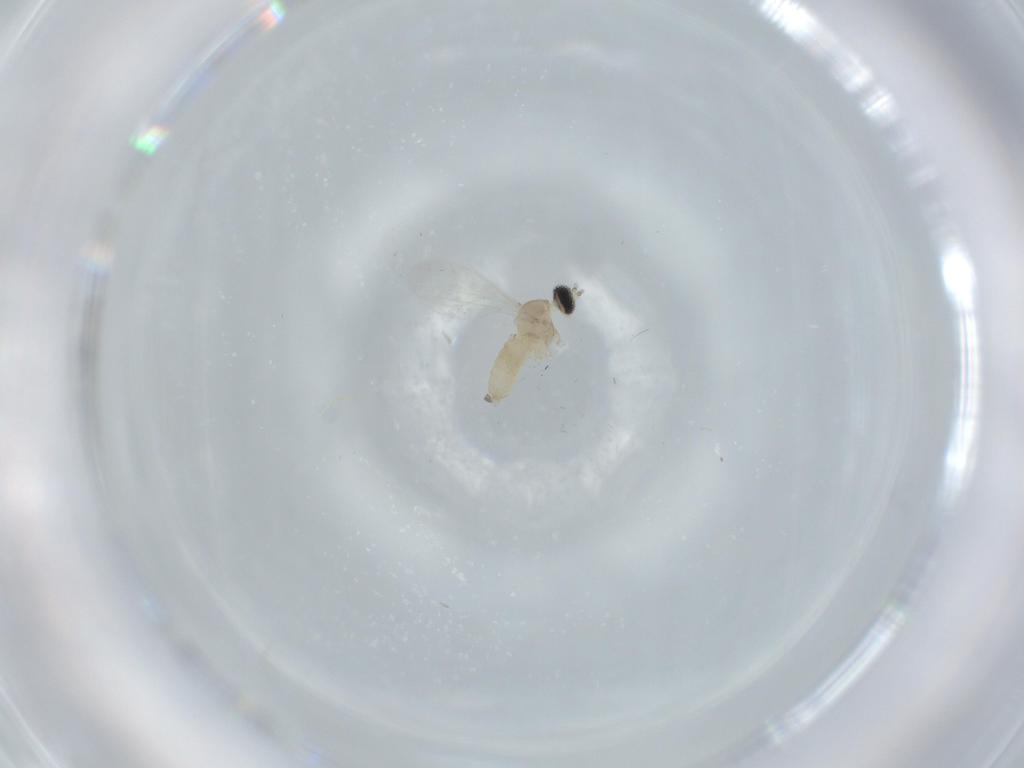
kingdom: Animalia
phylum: Arthropoda
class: Insecta
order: Diptera
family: Cecidomyiidae
